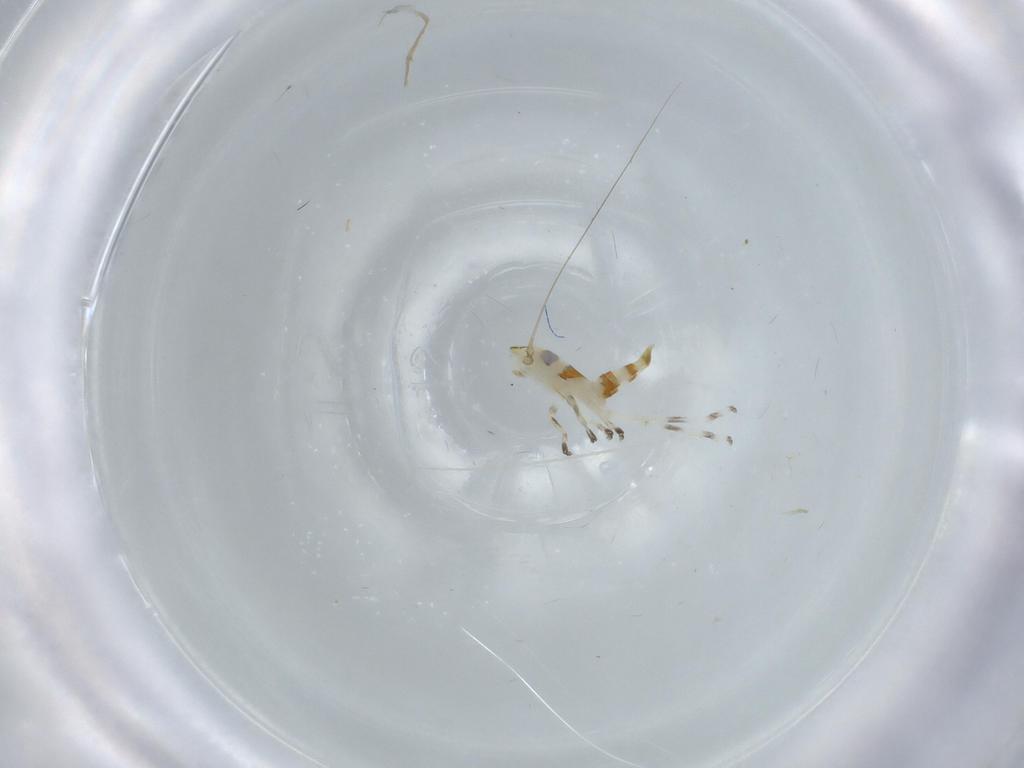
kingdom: Animalia
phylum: Arthropoda
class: Insecta
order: Hemiptera
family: Cicadellidae
